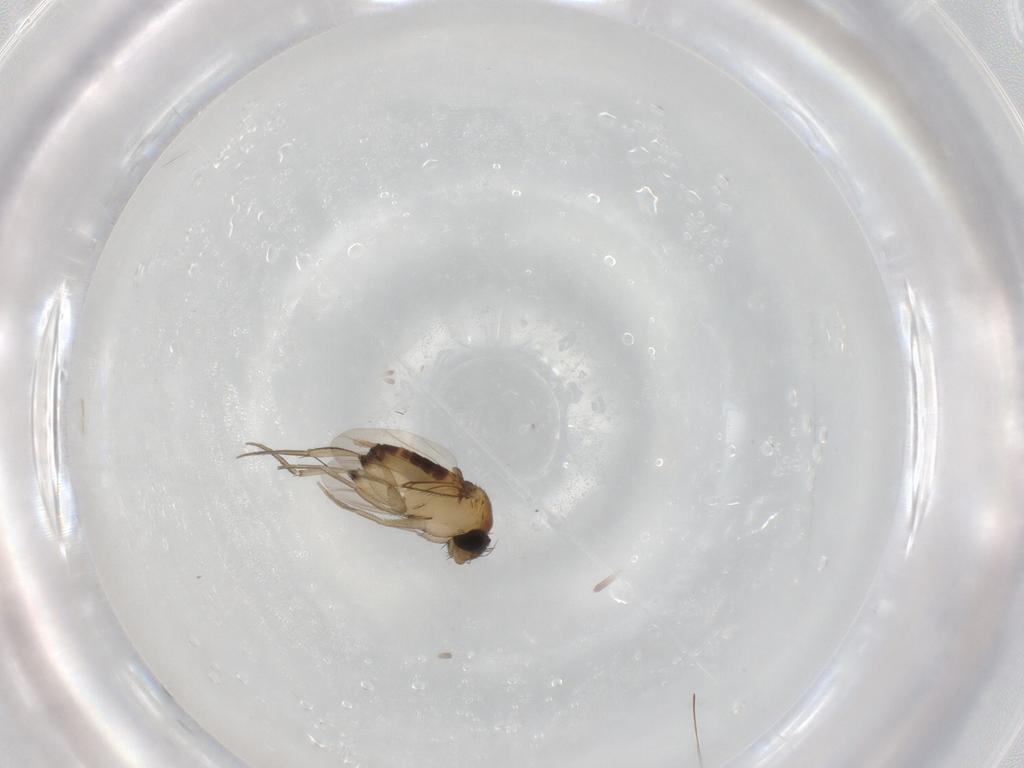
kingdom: Animalia
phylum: Arthropoda
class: Insecta
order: Diptera
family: Phoridae
